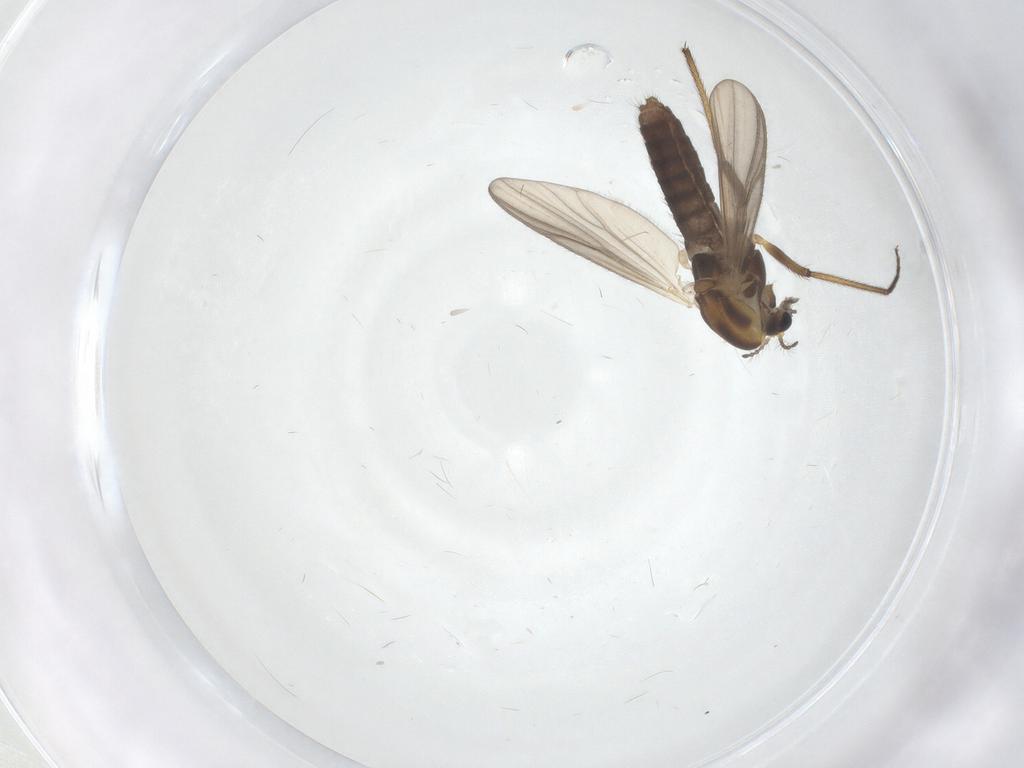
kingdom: Animalia
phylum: Arthropoda
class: Insecta
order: Diptera
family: Chironomidae
